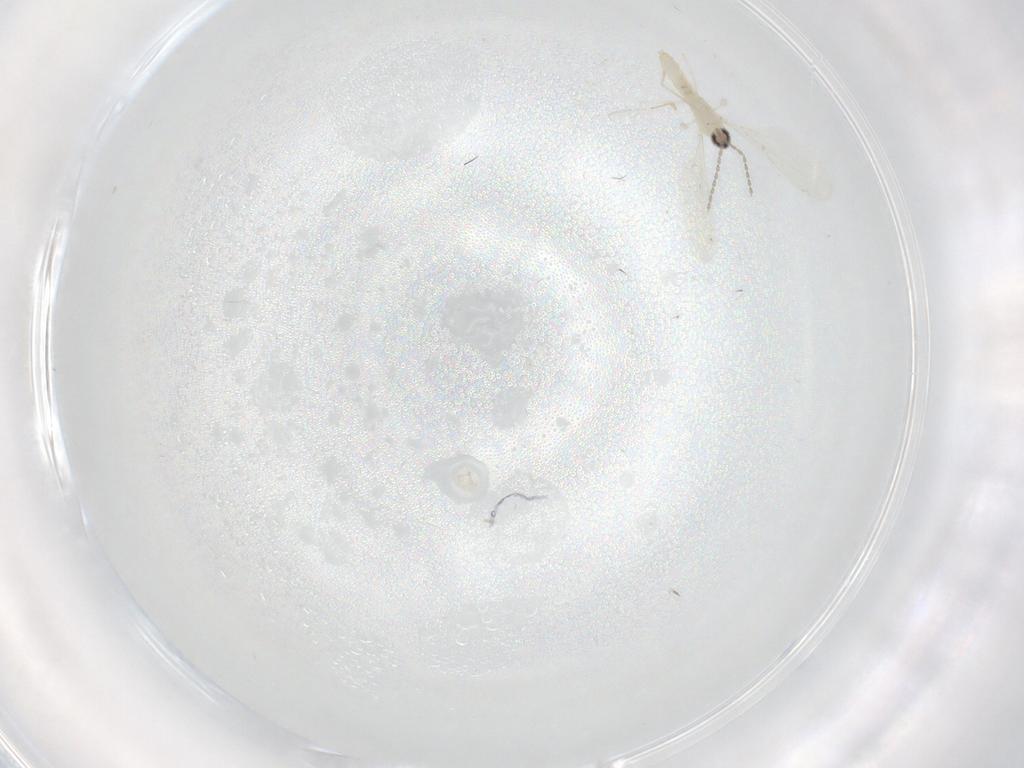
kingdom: Animalia
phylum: Arthropoda
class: Insecta
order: Diptera
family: Chironomidae
